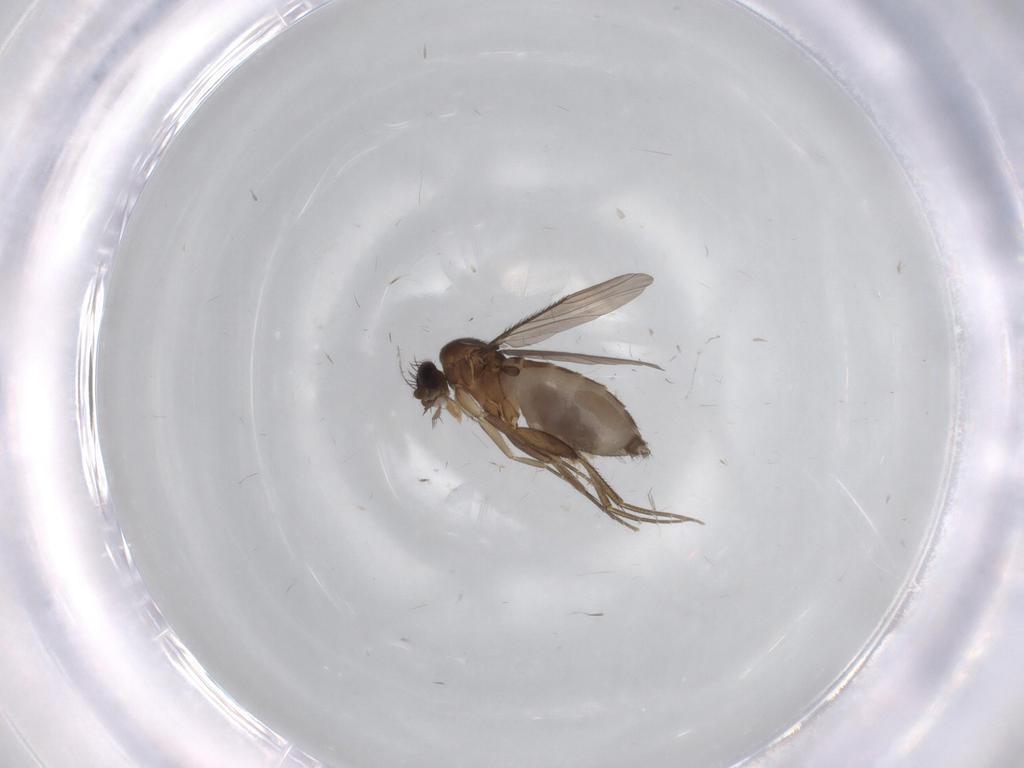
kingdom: Animalia
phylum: Arthropoda
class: Insecta
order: Diptera
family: Phoridae
